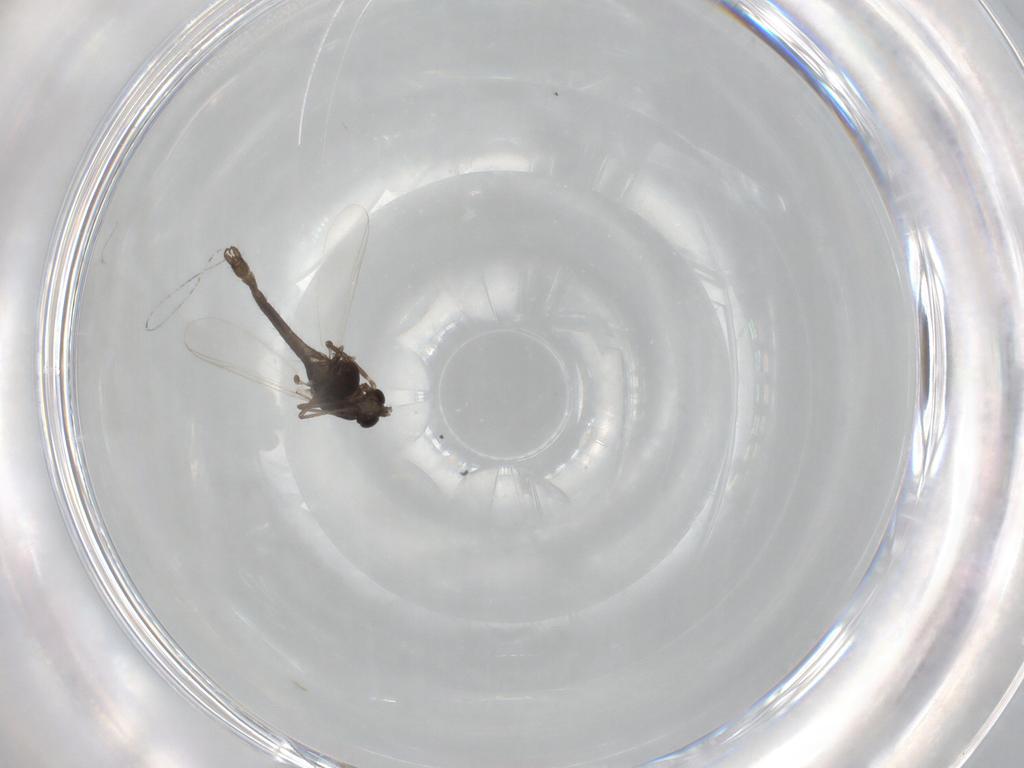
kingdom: Animalia
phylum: Arthropoda
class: Insecta
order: Diptera
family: Chironomidae
